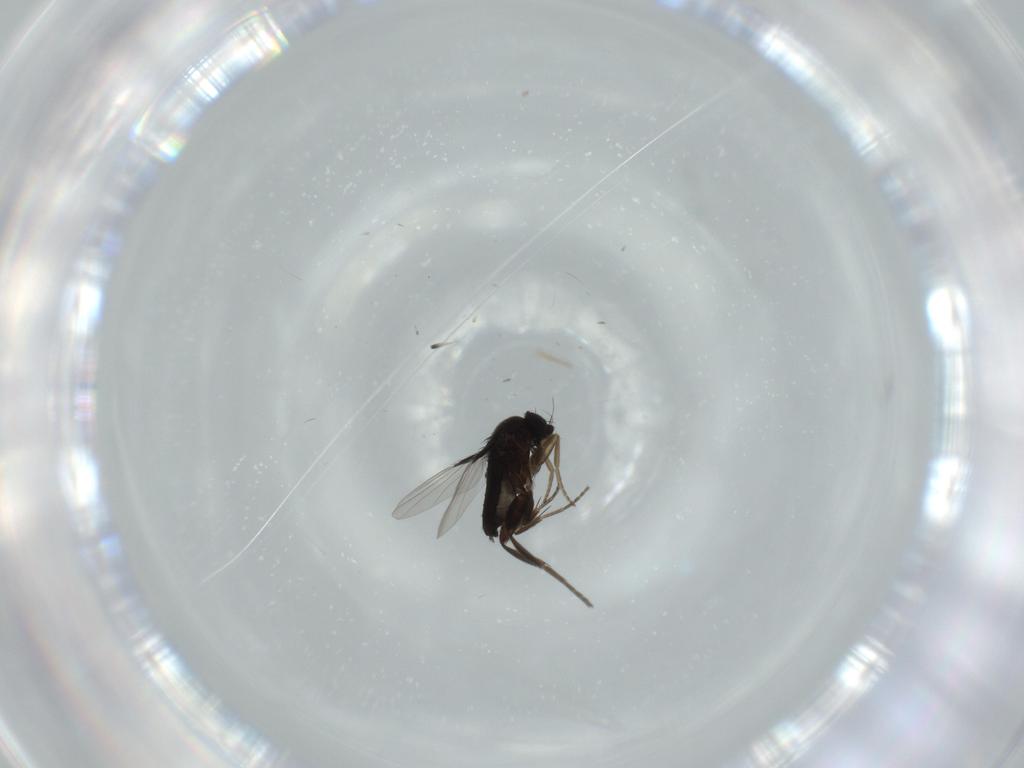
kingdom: Animalia
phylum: Arthropoda
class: Insecta
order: Diptera
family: Phoridae
